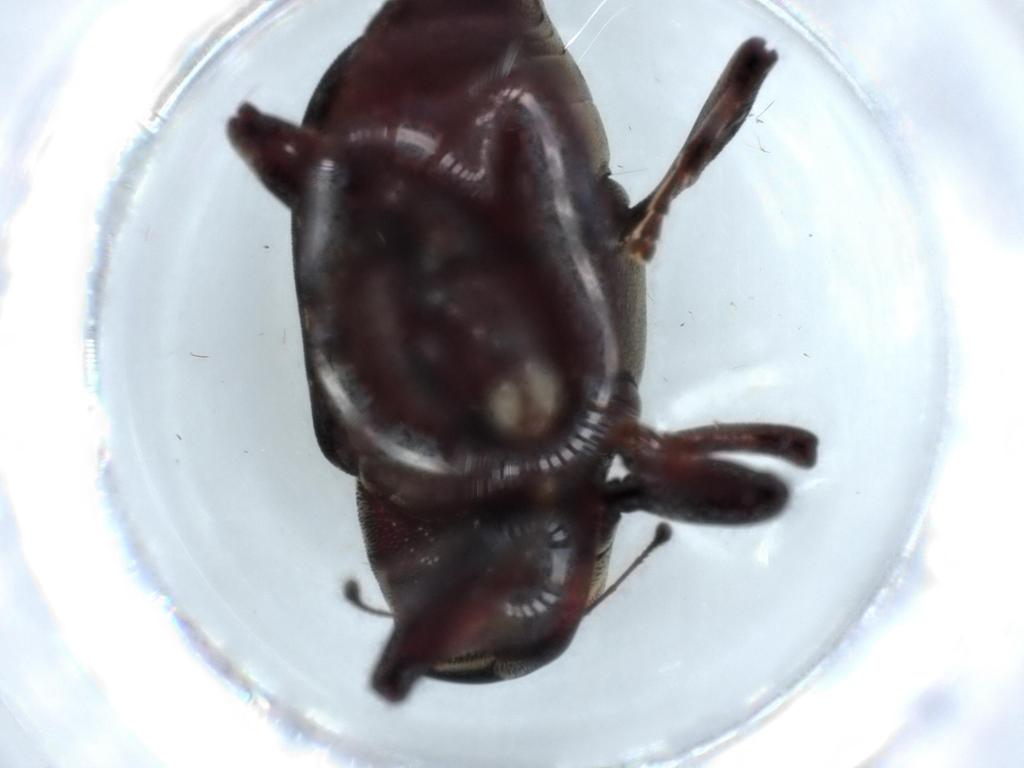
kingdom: Animalia
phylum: Arthropoda
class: Insecta
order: Coleoptera
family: Curculionidae
